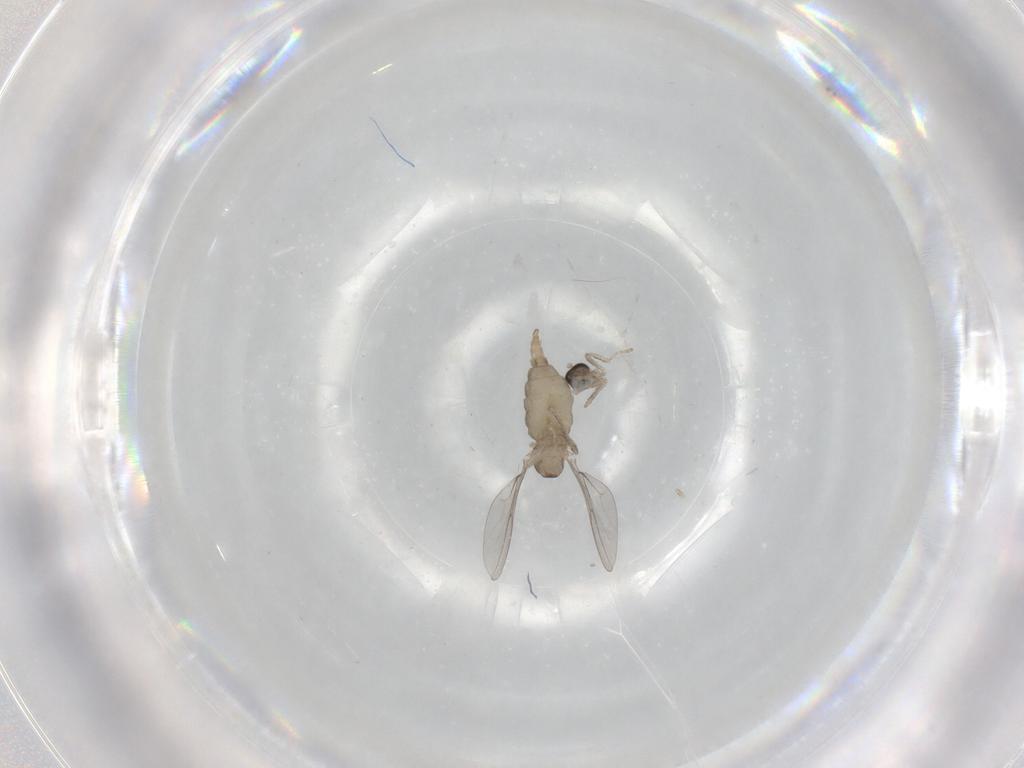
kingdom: Animalia
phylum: Arthropoda
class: Insecta
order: Diptera
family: Cecidomyiidae
